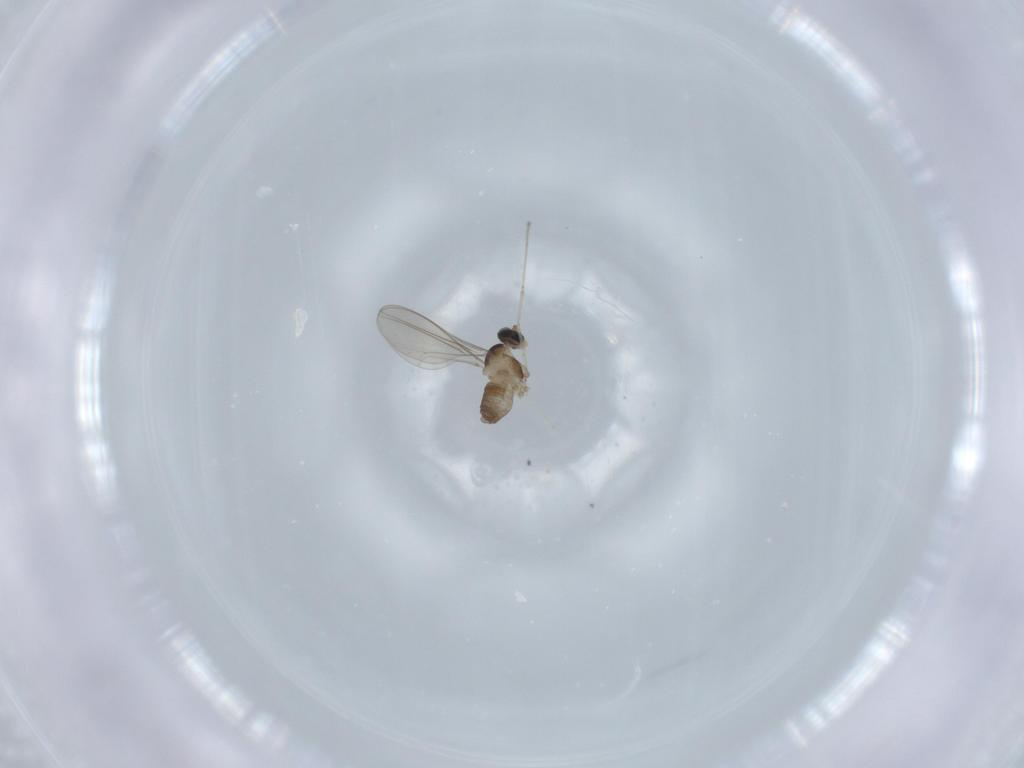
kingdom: Animalia
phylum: Arthropoda
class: Insecta
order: Diptera
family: Cecidomyiidae
